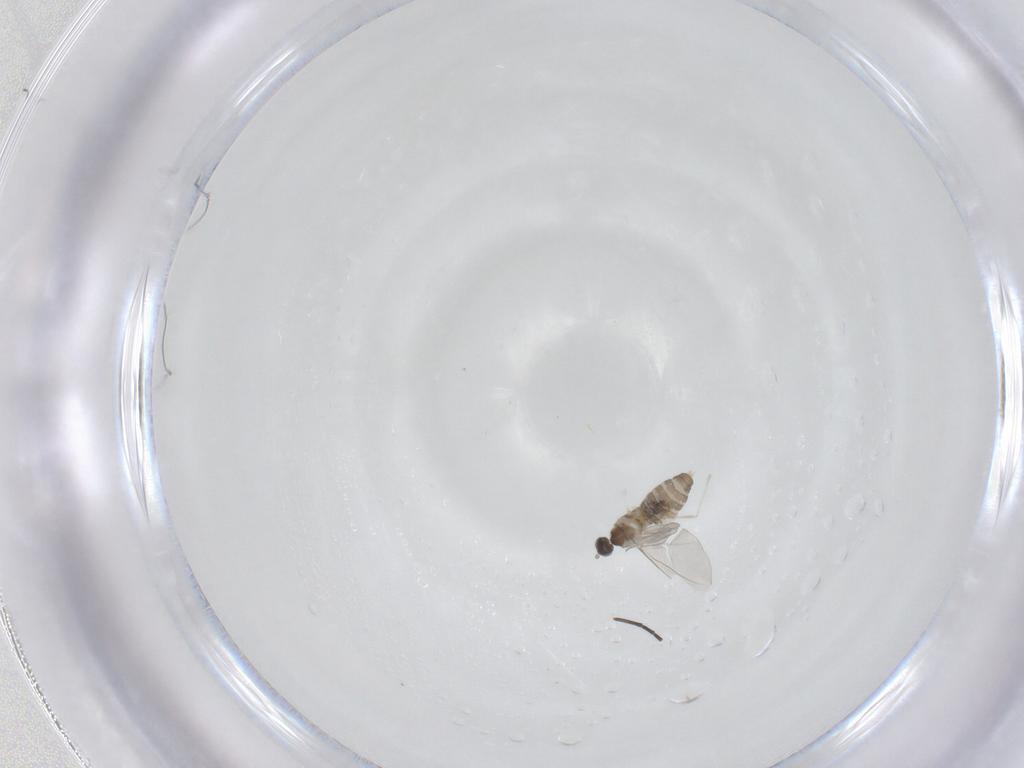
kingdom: Animalia
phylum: Arthropoda
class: Insecta
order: Diptera
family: Sciaridae
